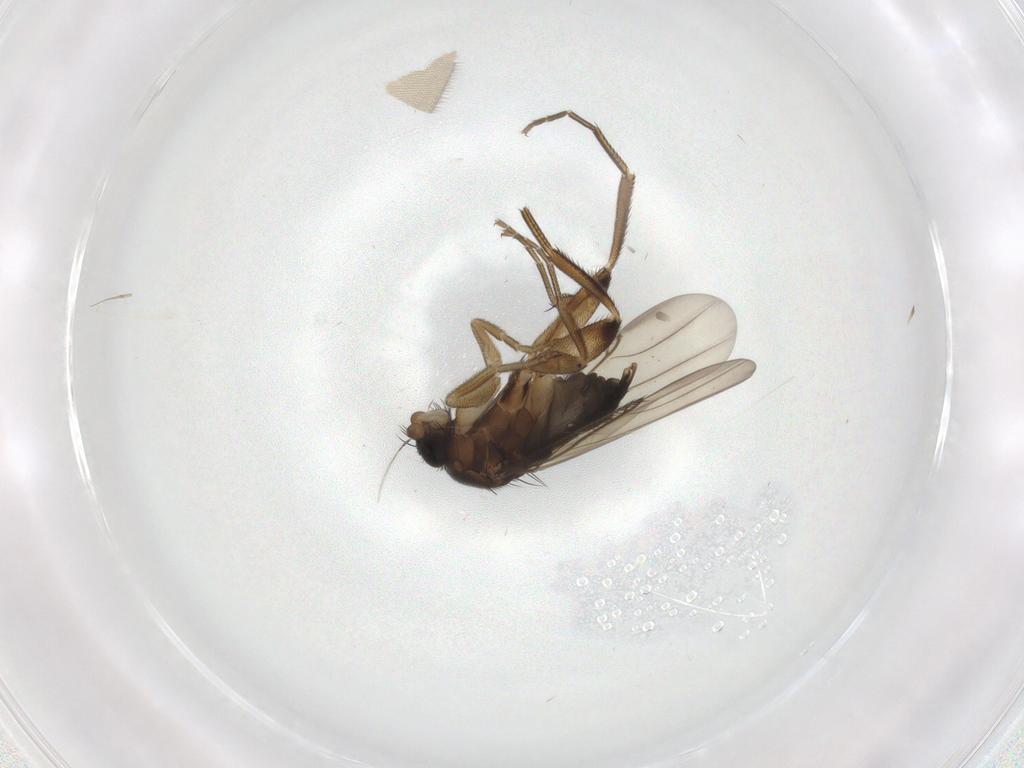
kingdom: Animalia
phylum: Arthropoda
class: Insecta
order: Diptera
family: Phoridae
